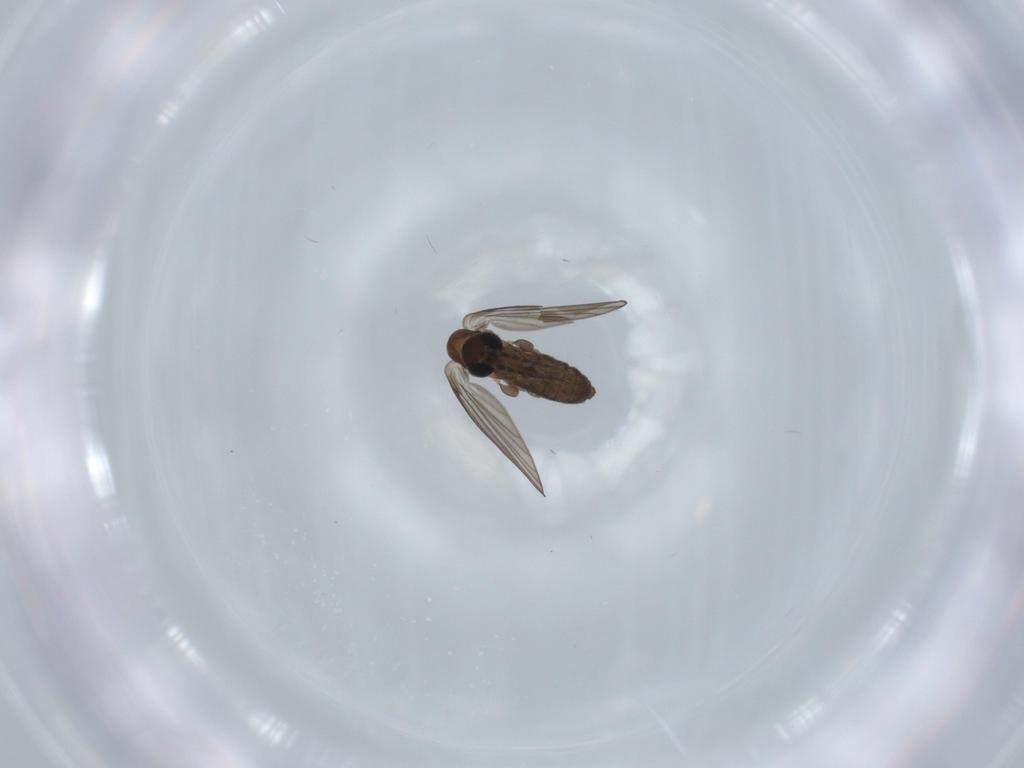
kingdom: Animalia
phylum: Arthropoda
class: Insecta
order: Diptera
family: Psychodidae
